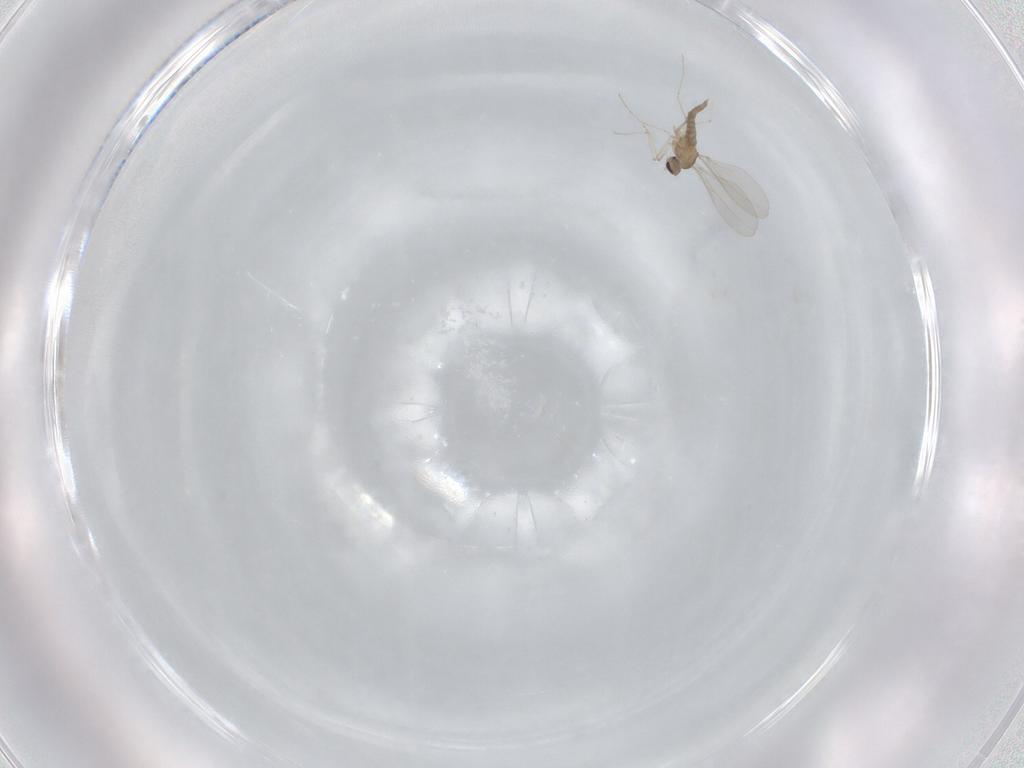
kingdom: Animalia
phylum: Arthropoda
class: Insecta
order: Diptera
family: Cecidomyiidae
